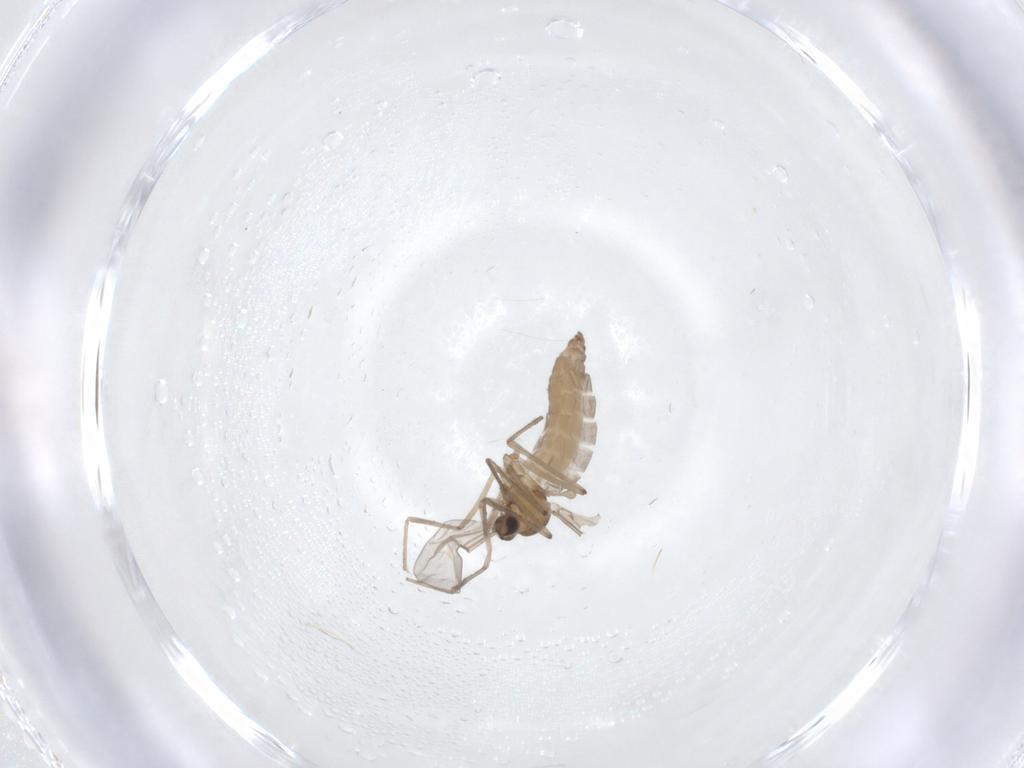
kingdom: Animalia
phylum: Arthropoda
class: Insecta
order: Diptera
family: Cecidomyiidae
